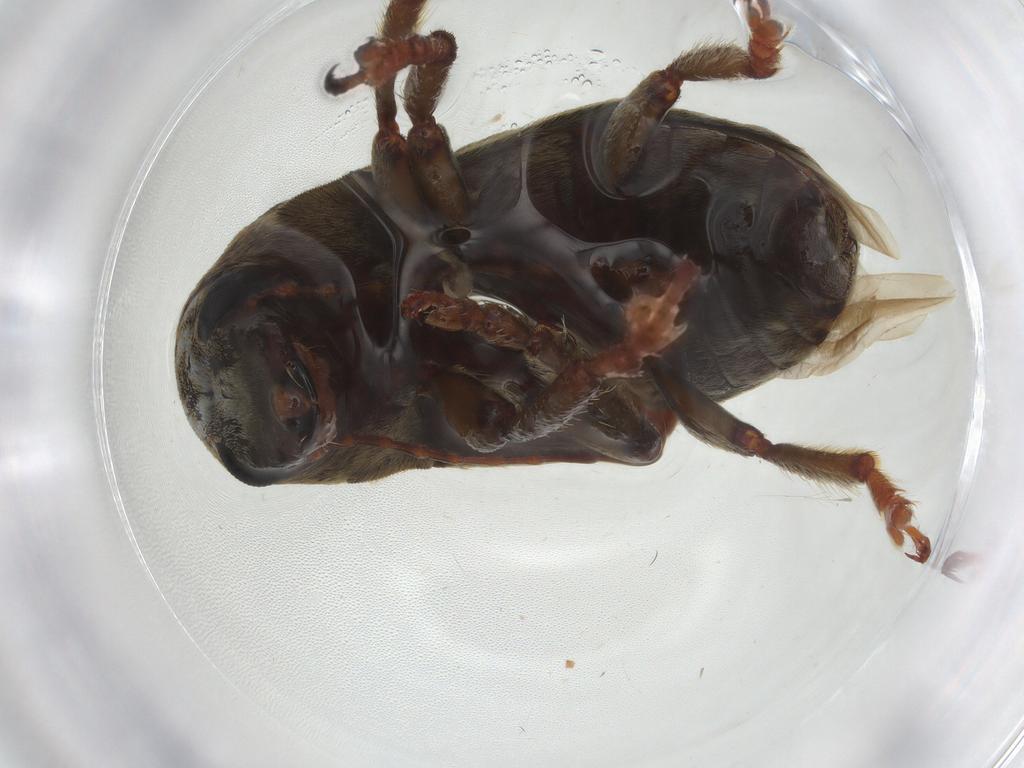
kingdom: Animalia
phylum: Arthropoda
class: Insecta
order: Coleoptera
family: Anthribidae
